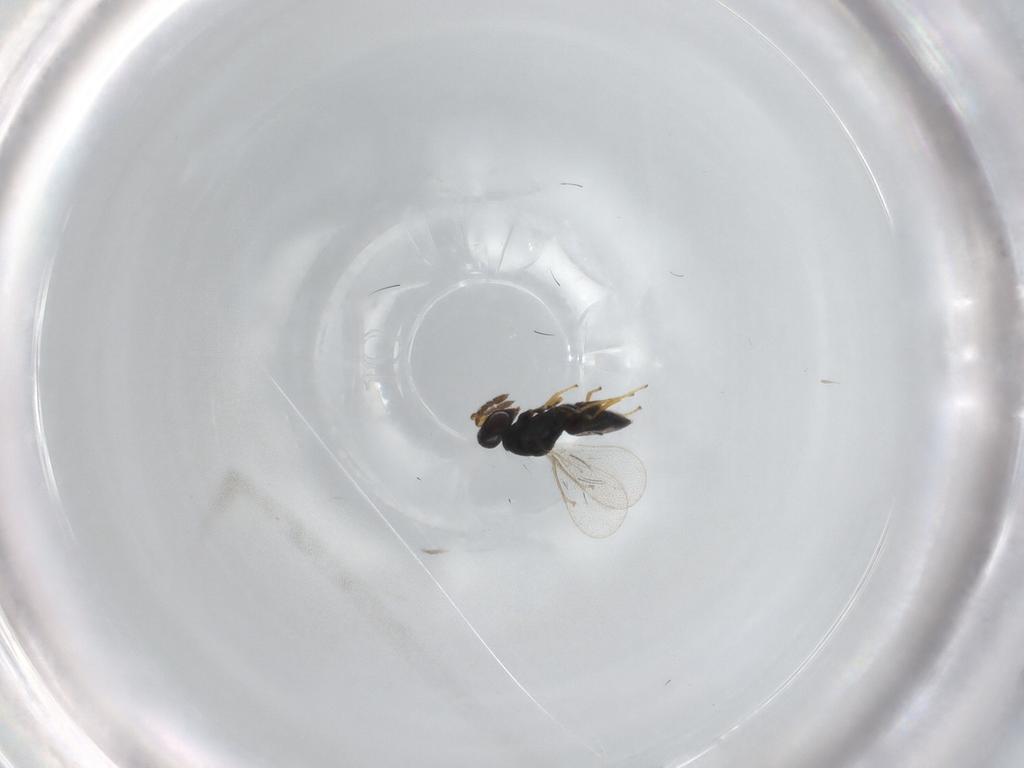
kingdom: Animalia
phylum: Arthropoda
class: Insecta
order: Hymenoptera
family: Eulophidae
